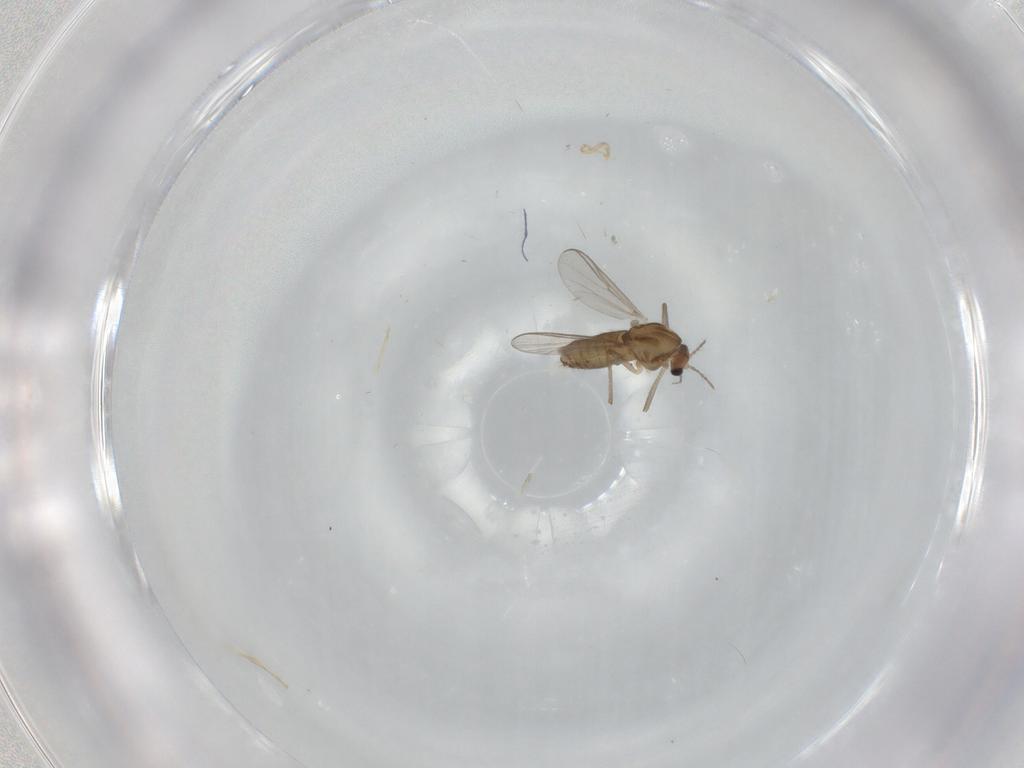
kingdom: Animalia
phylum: Arthropoda
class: Insecta
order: Diptera
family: Chironomidae
